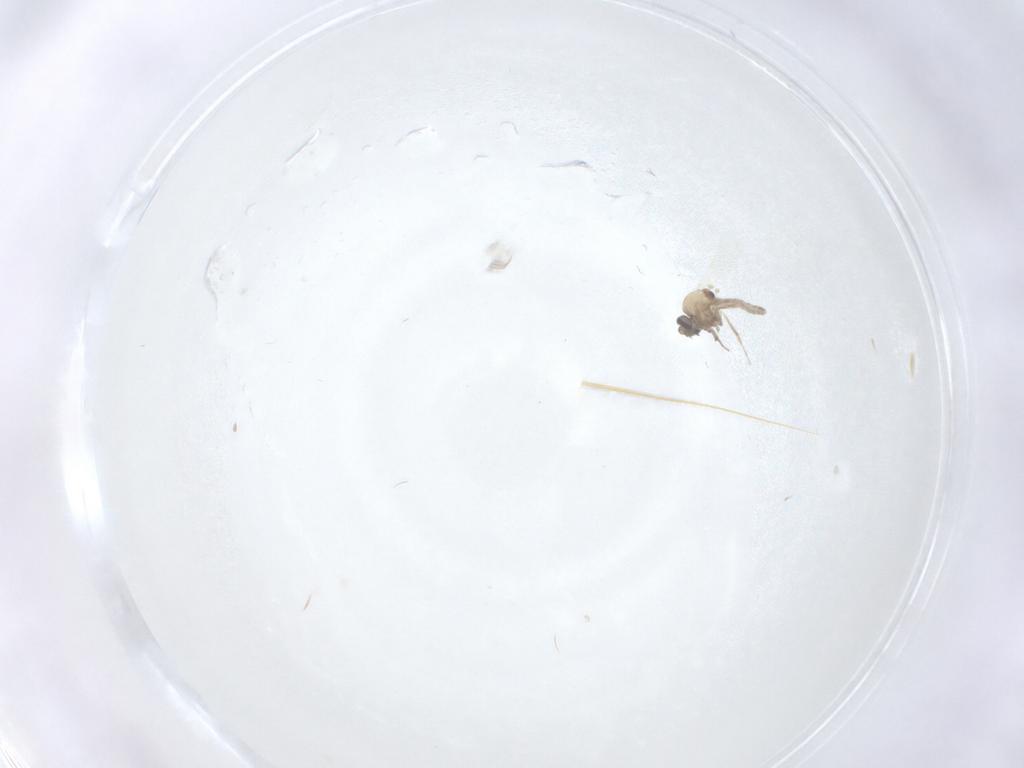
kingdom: Animalia
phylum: Arthropoda
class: Insecta
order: Diptera
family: Ceratopogonidae
